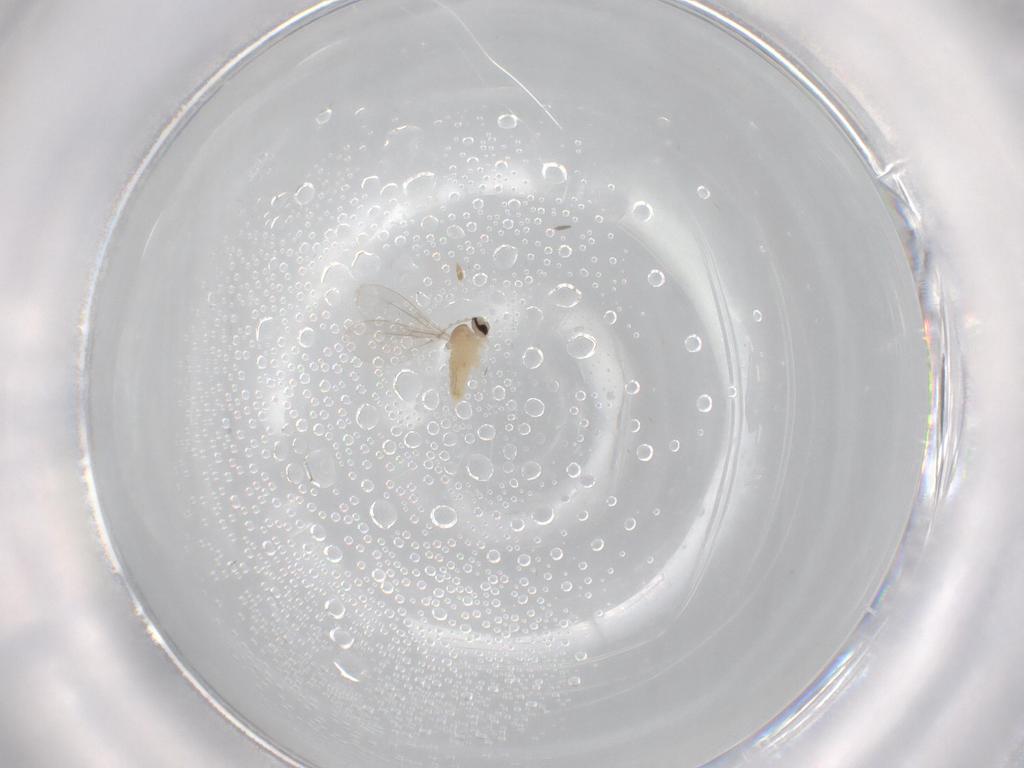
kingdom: Animalia
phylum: Arthropoda
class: Insecta
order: Diptera
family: Cecidomyiidae
